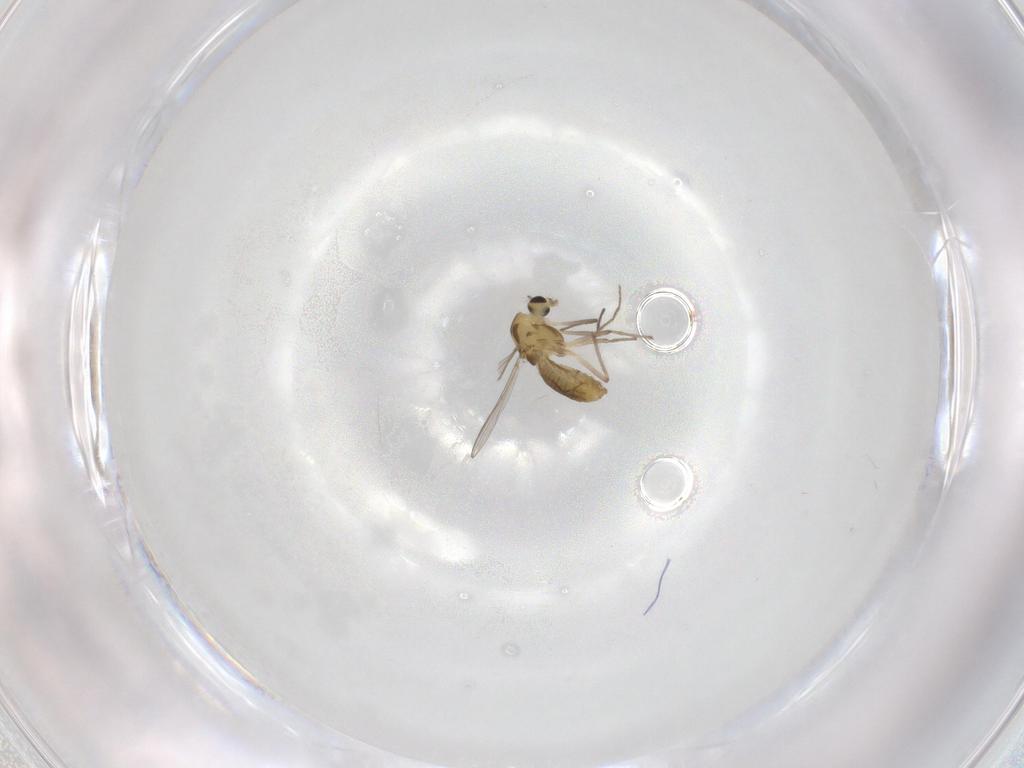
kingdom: Animalia
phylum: Arthropoda
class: Insecta
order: Diptera
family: Chironomidae
